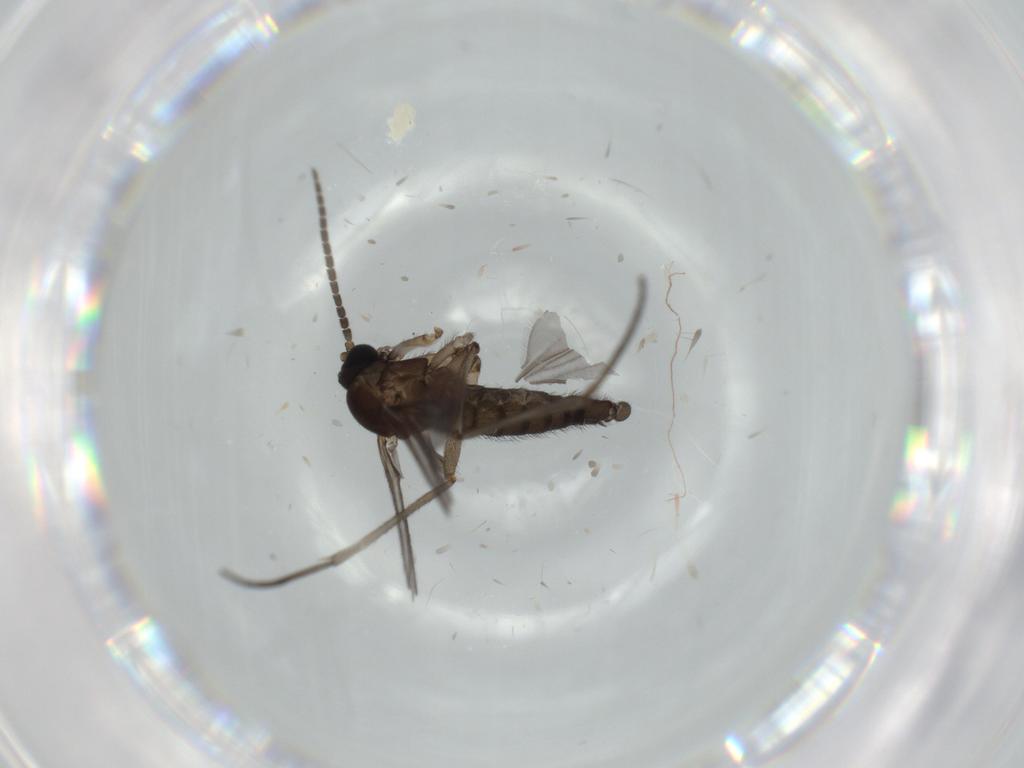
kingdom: Animalia
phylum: Arthropoda
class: Insecta
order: Diptera
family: Sciaridae
